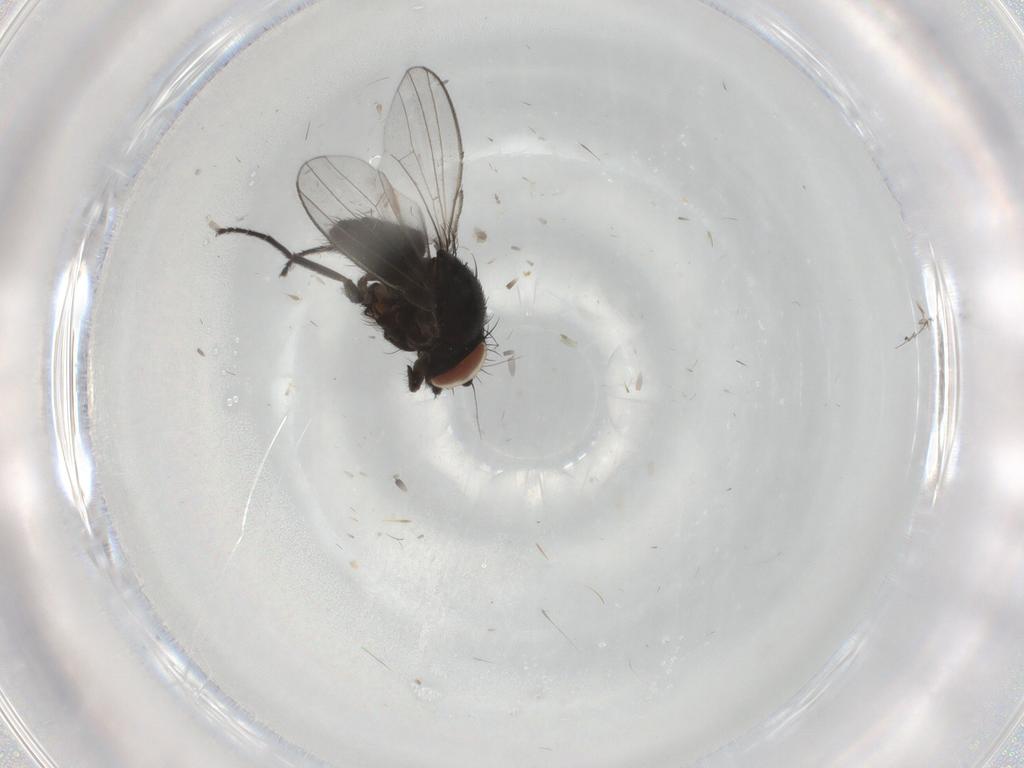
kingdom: Animalia
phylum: Arthropoda
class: Insecta
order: Diptera
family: Milichiidae
